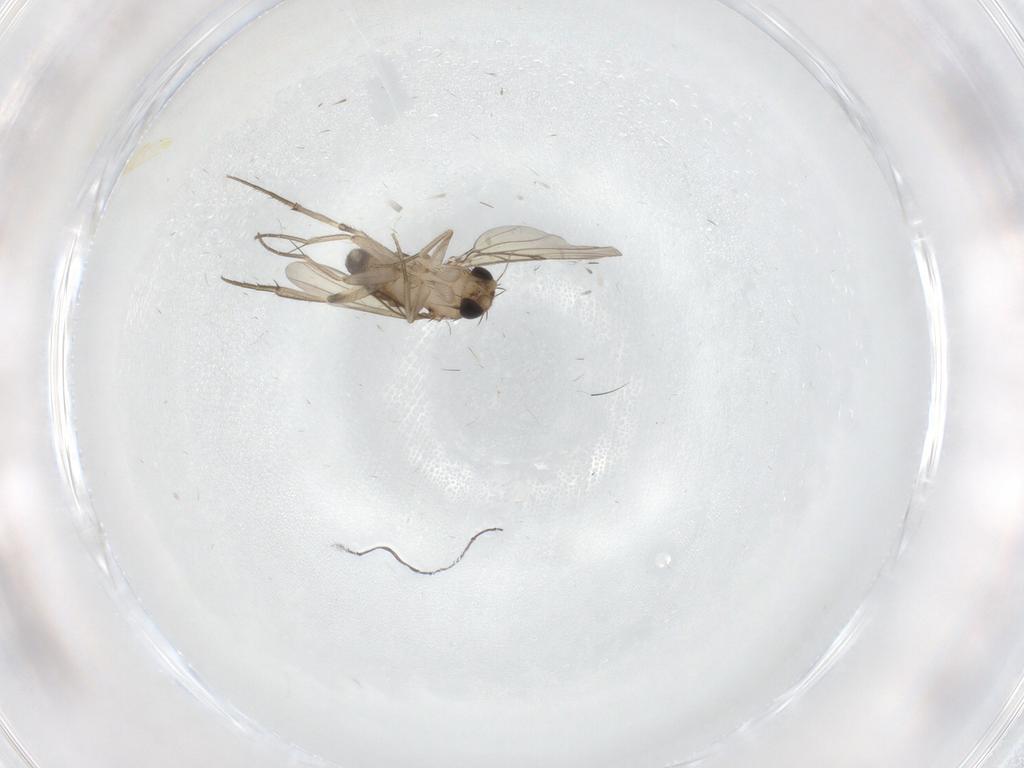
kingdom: Animalia
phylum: Arthropoda
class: Insecta
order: Diptera
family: Phoridae
